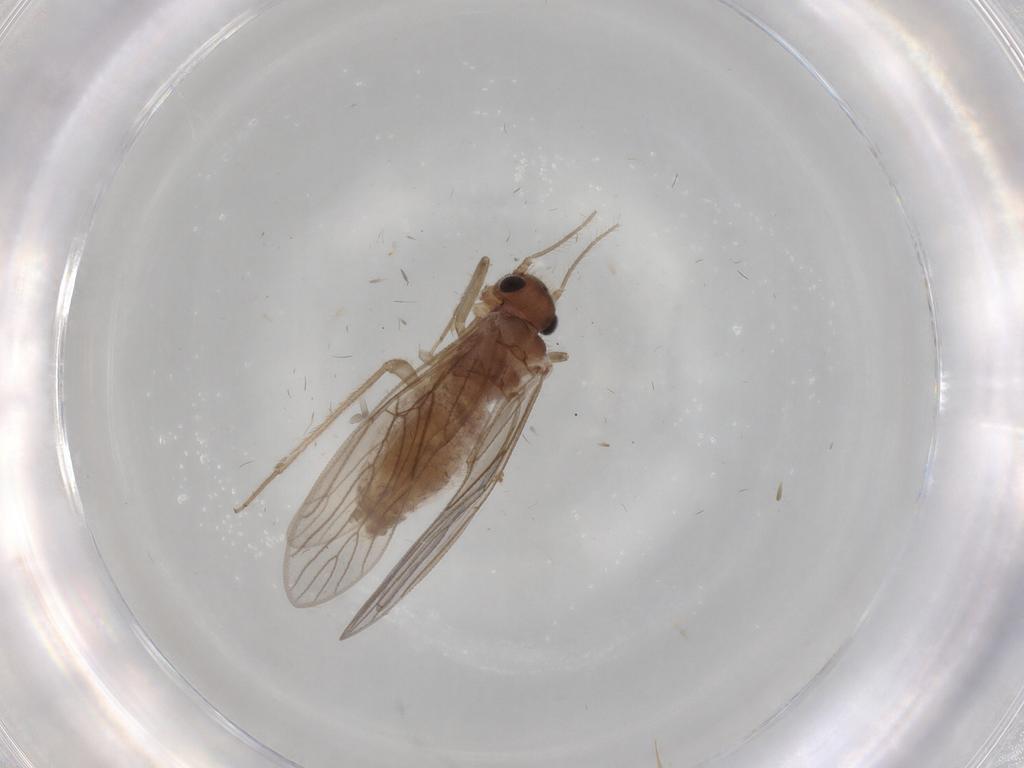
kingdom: Animalia
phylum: Arthropoda
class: Insecta
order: Psocodea
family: Cladiopsocidae
